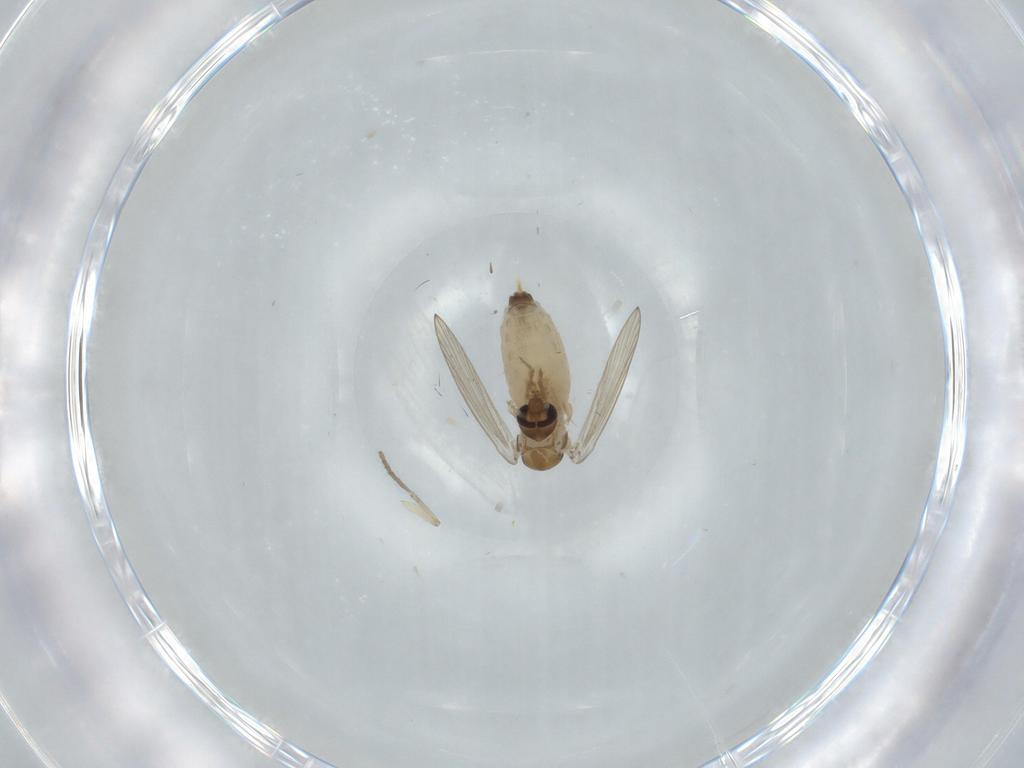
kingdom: Animalia
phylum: Arthropoda
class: Insecta
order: Diptera
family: Psychodidae
